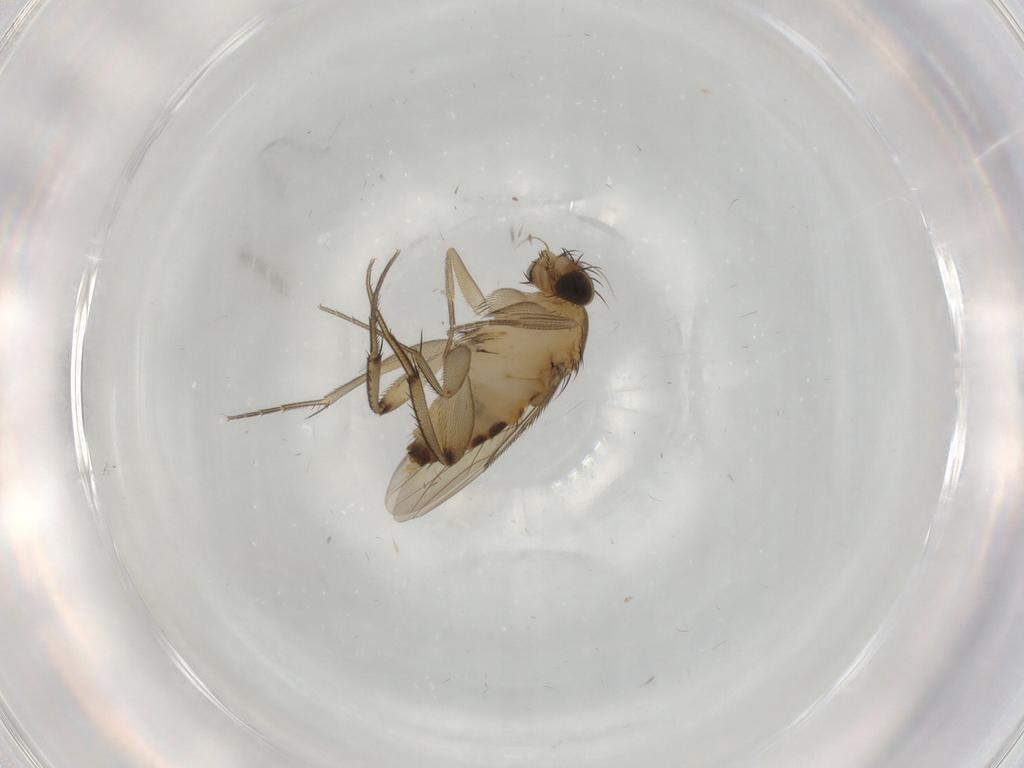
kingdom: Animalia
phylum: Arthropoda
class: Insecta
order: Diptera
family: Phoridae
